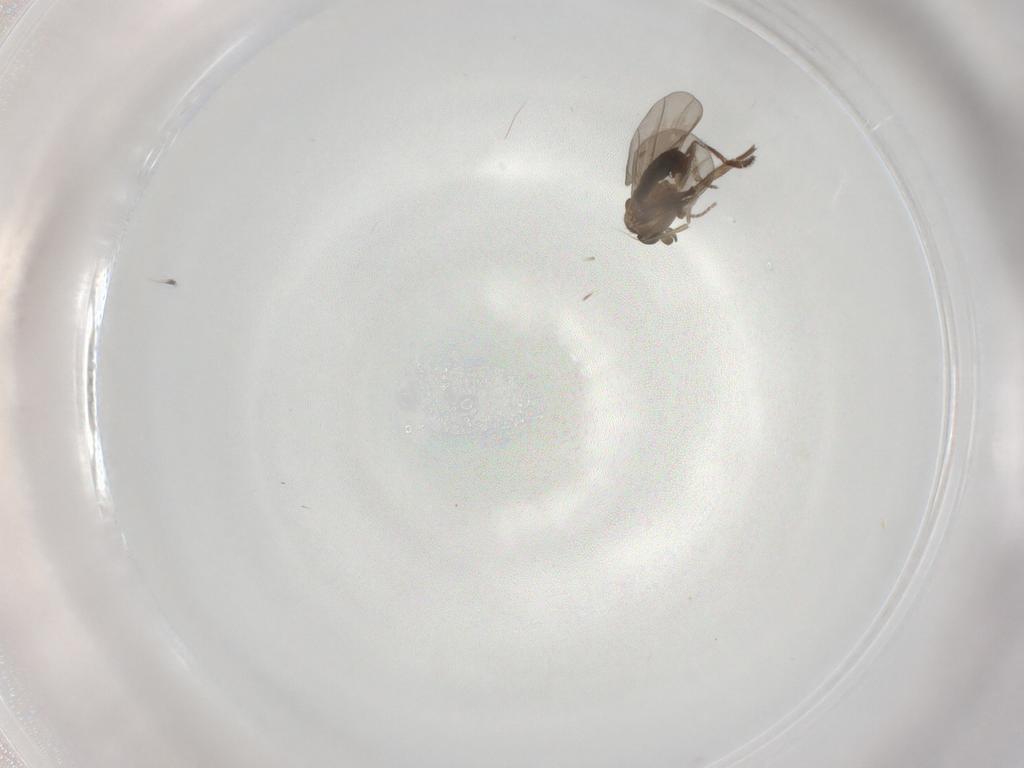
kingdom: Animalia
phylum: Arthropoda
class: Insecta
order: Diptera
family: Phoridae
